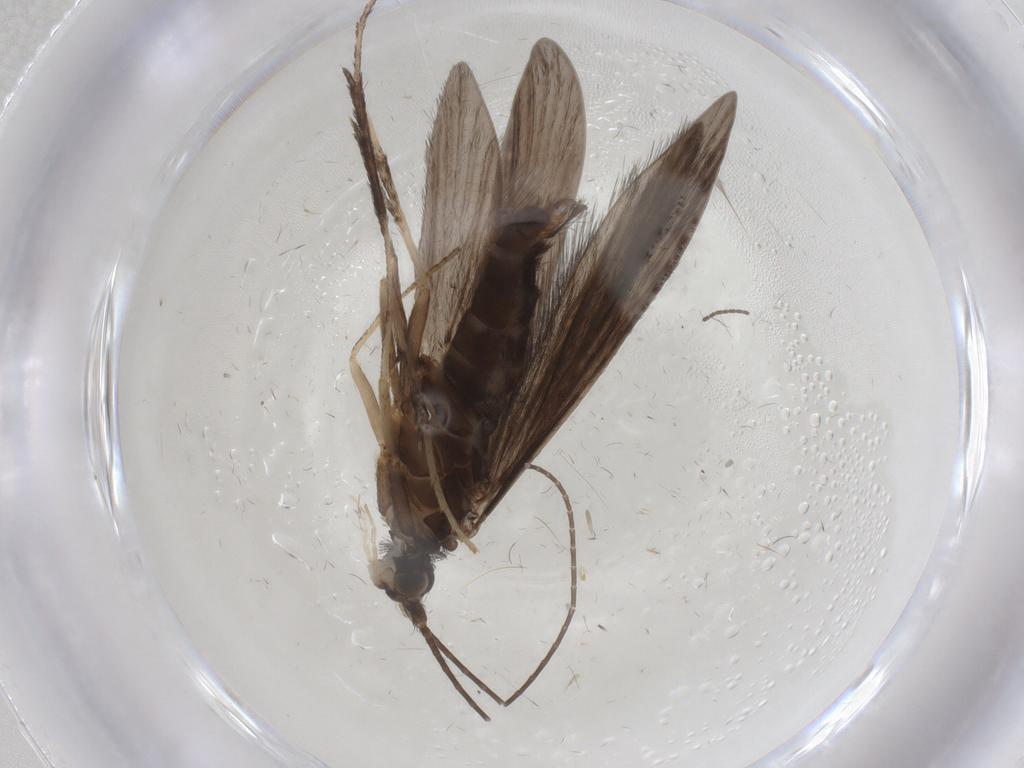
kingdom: Animalia
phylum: Arthropoda
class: Insecta
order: Trichoptera
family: Xiphocentronidae
